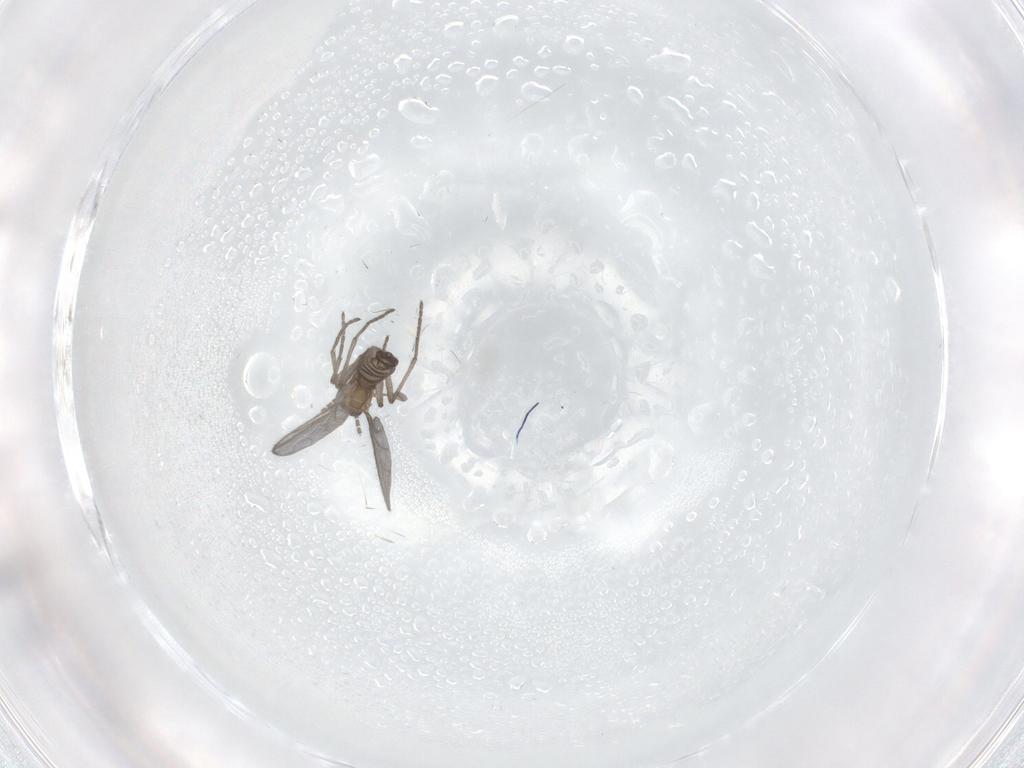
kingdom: Animalia
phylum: Arthropoda
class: Insecta
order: Diptera
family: Sciaridae
